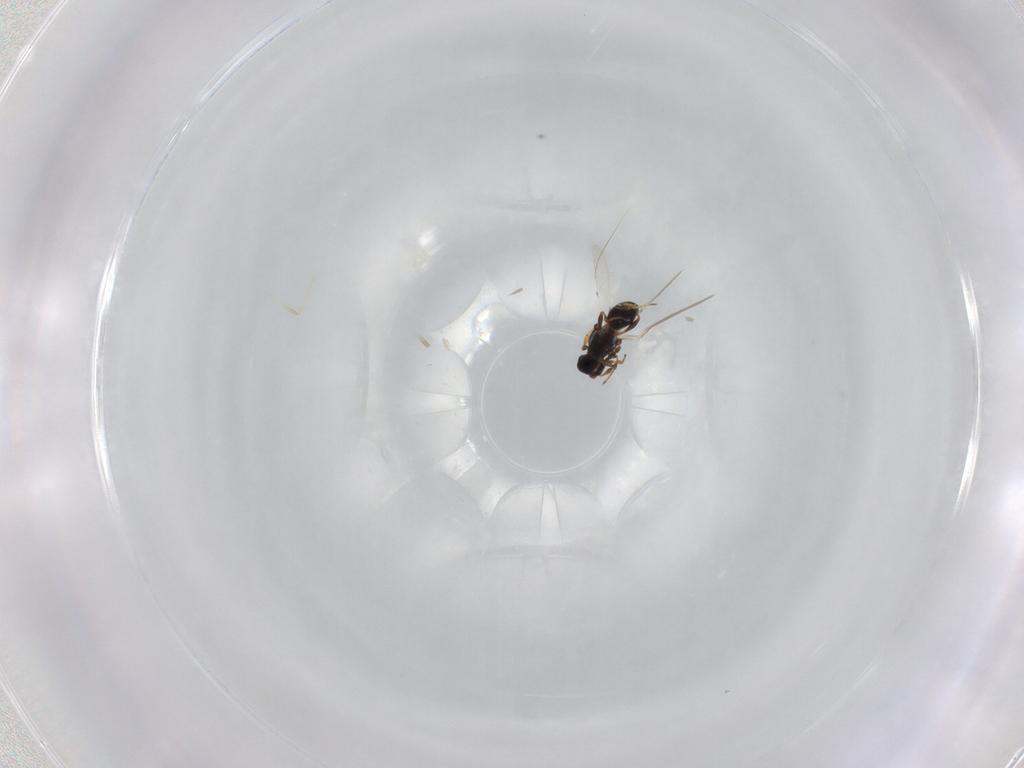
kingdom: Animalia
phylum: Arthropoda
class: Insecta
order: Hymenoptera
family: Platygastridae
